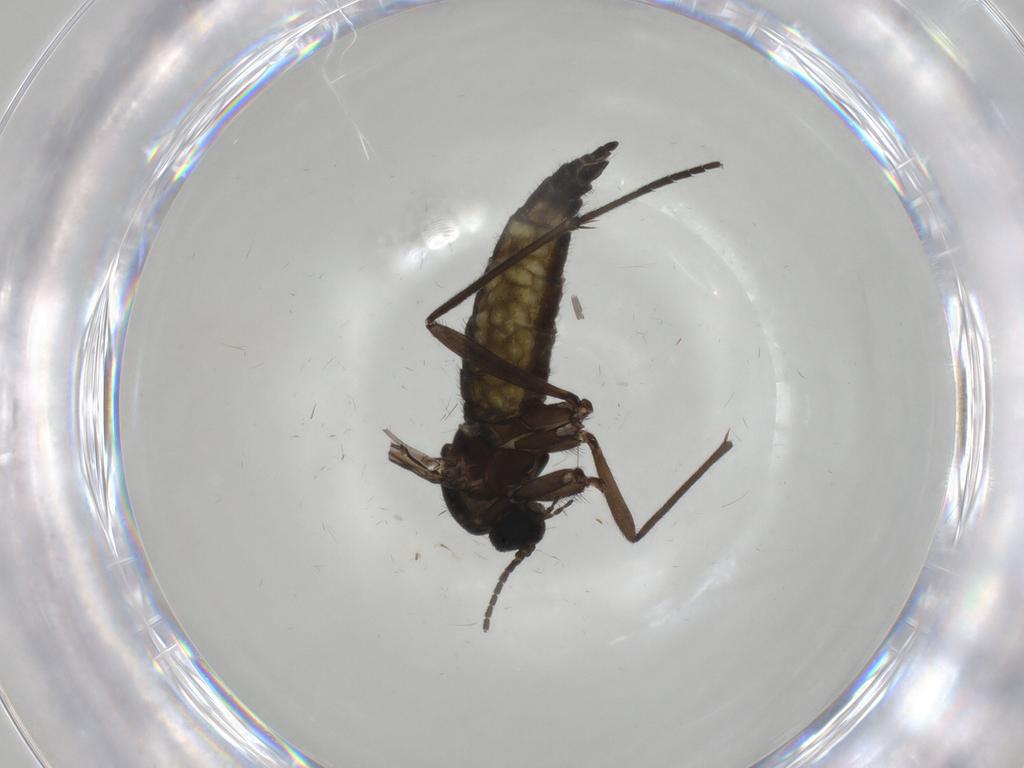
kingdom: Animalia
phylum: Arthropoda
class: Insecta
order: Diptera
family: Sciaridae
